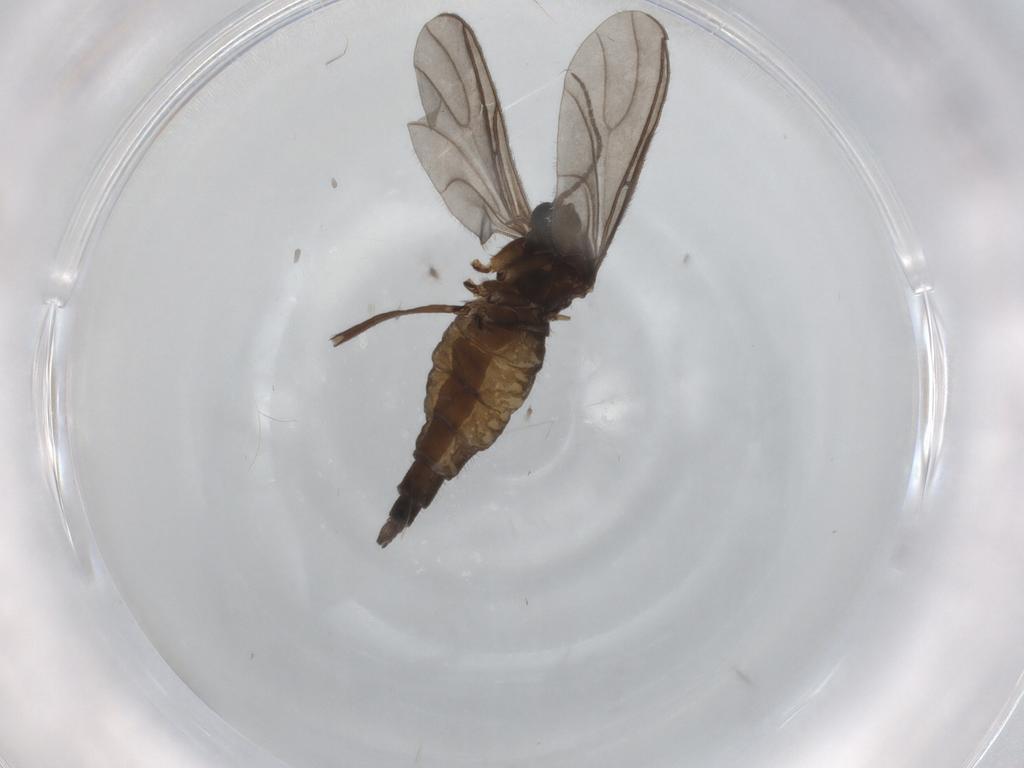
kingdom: Animalia
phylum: Arthropoda
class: Insecta
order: Diptera
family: Sciaridae
